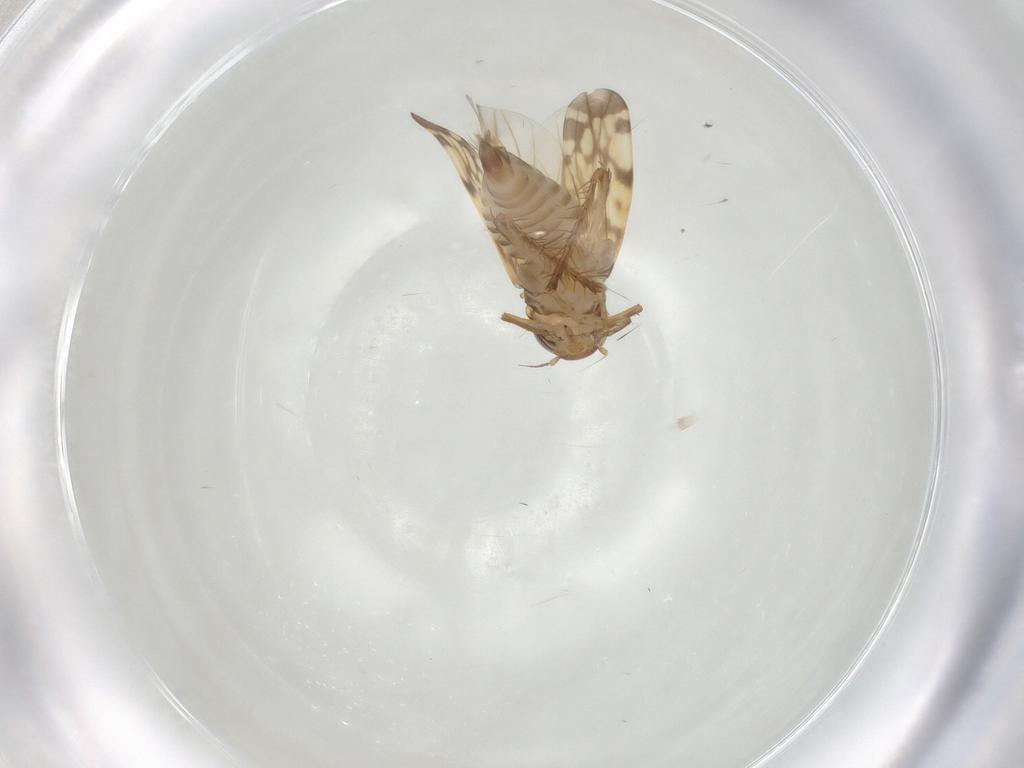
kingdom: Animalia
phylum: Arthropoda
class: Insecta
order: Hemiptera
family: Cicadellidae
